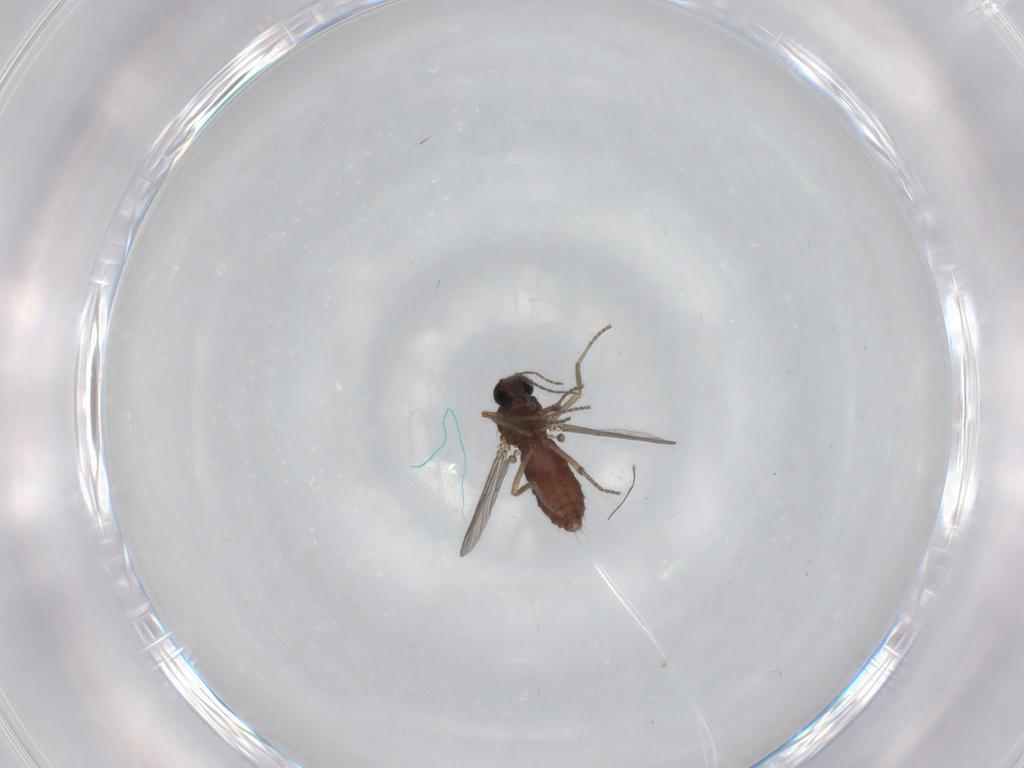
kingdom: Animalia
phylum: Arthropoda
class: Insecta
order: Diptera
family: Ceratopogonidae
